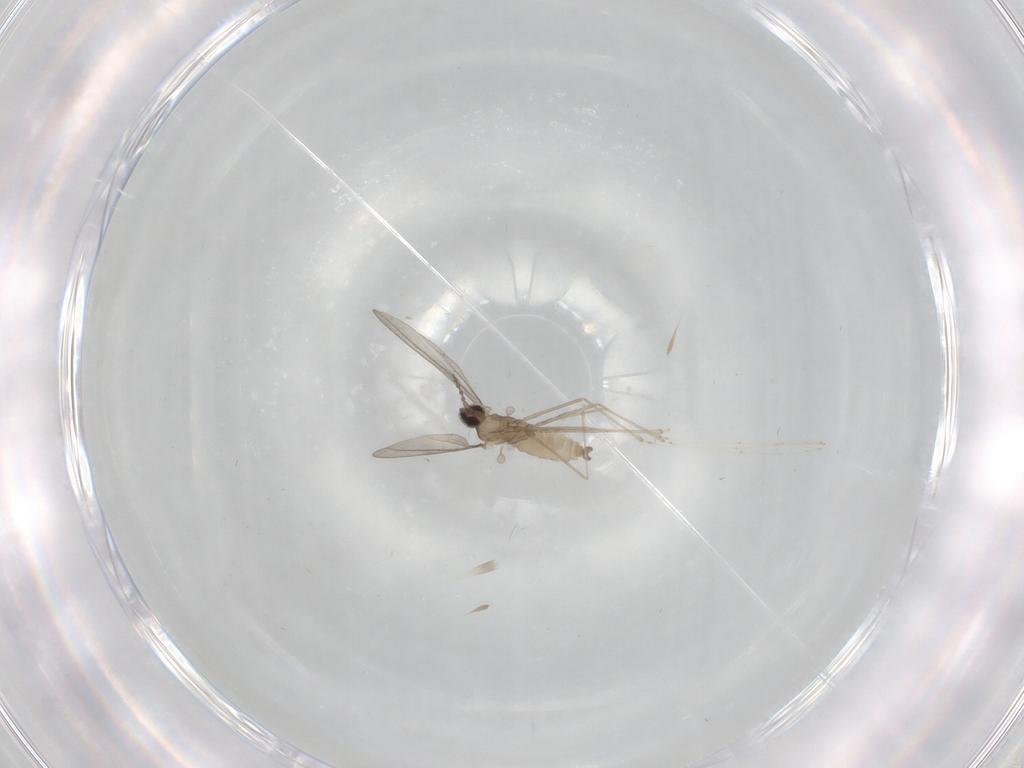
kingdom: Animalia
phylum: Arthropoda
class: Insecta
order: Diptera
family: Cecidomyiidae
